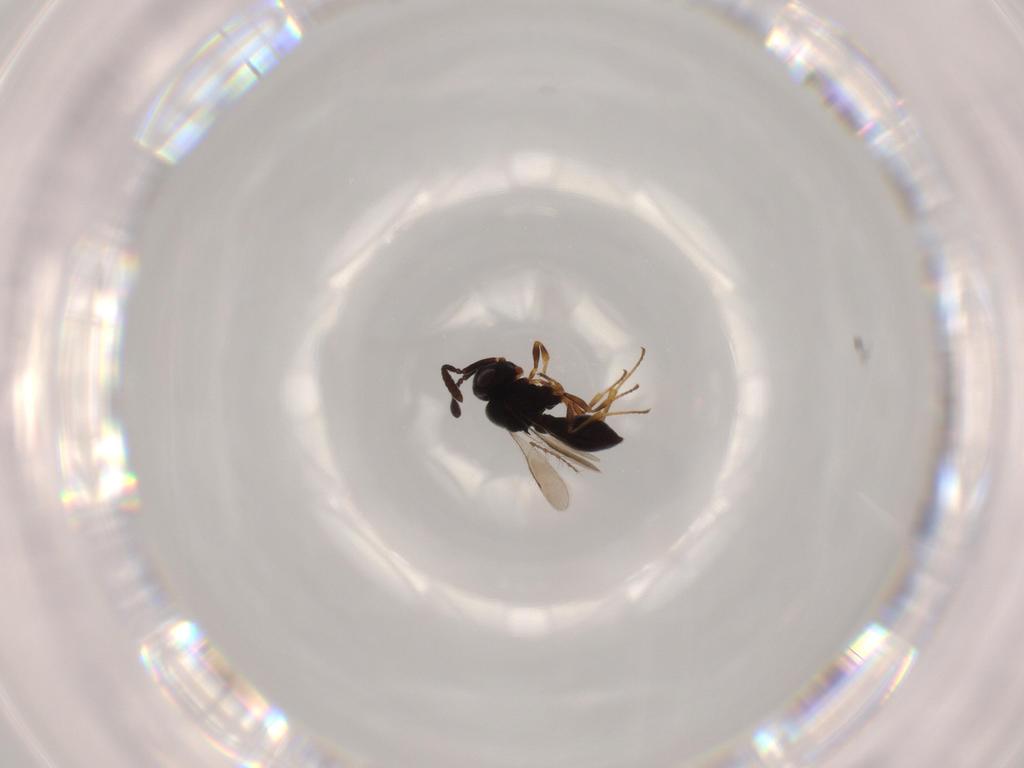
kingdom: Animalia
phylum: Arthropoda
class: Insecta
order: Hymenoptera
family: Scelionidae
